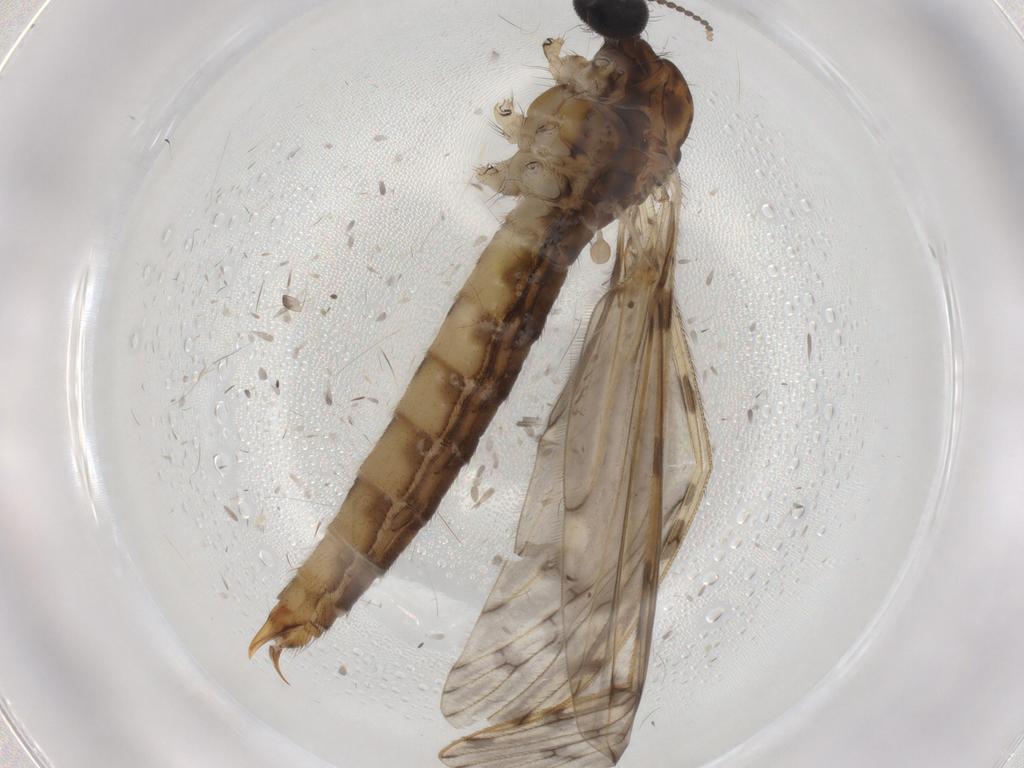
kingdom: Animalia
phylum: Arthropoda
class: Insecta
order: Diptera
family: Limoniidae
